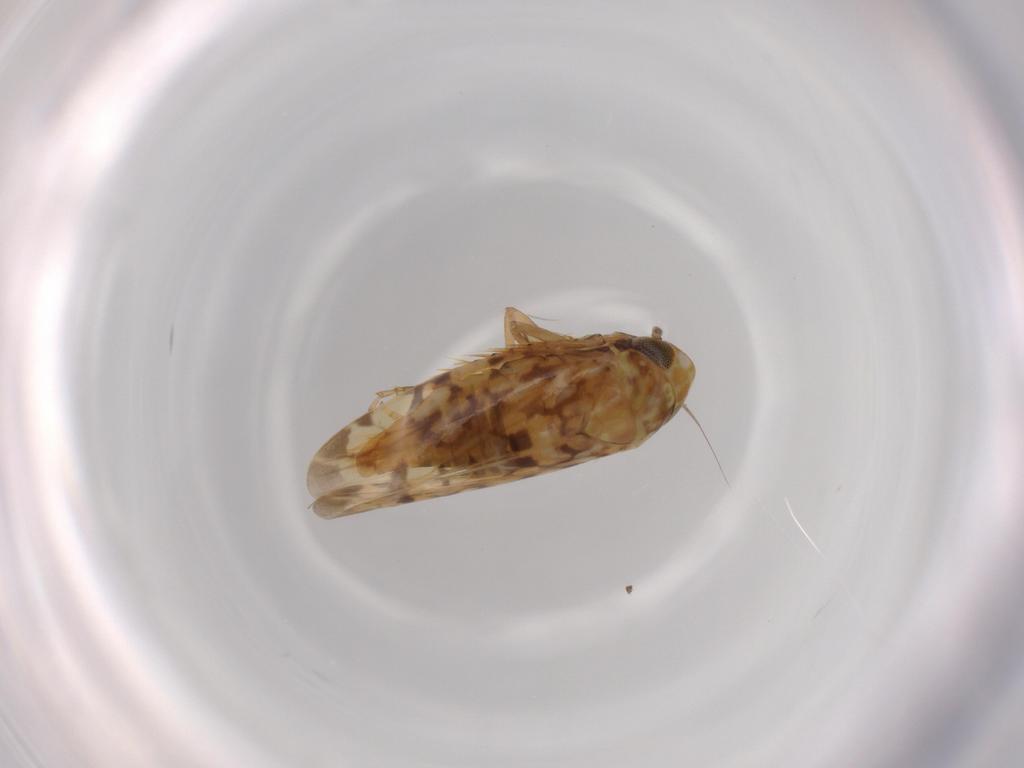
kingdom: Animalia
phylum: Arthropoda
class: Insecta
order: Hemiptera
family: Cicadellidae
